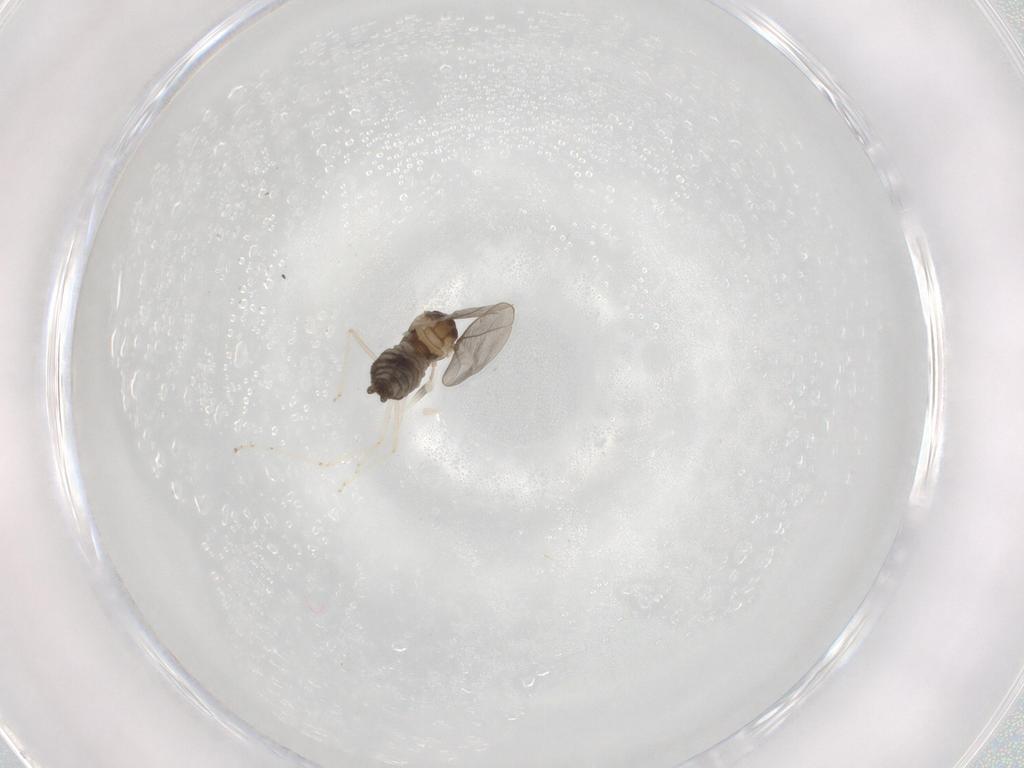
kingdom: Animalia
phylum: Arthropoda
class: Insecta
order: Diptera
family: Cecidomyiidae
